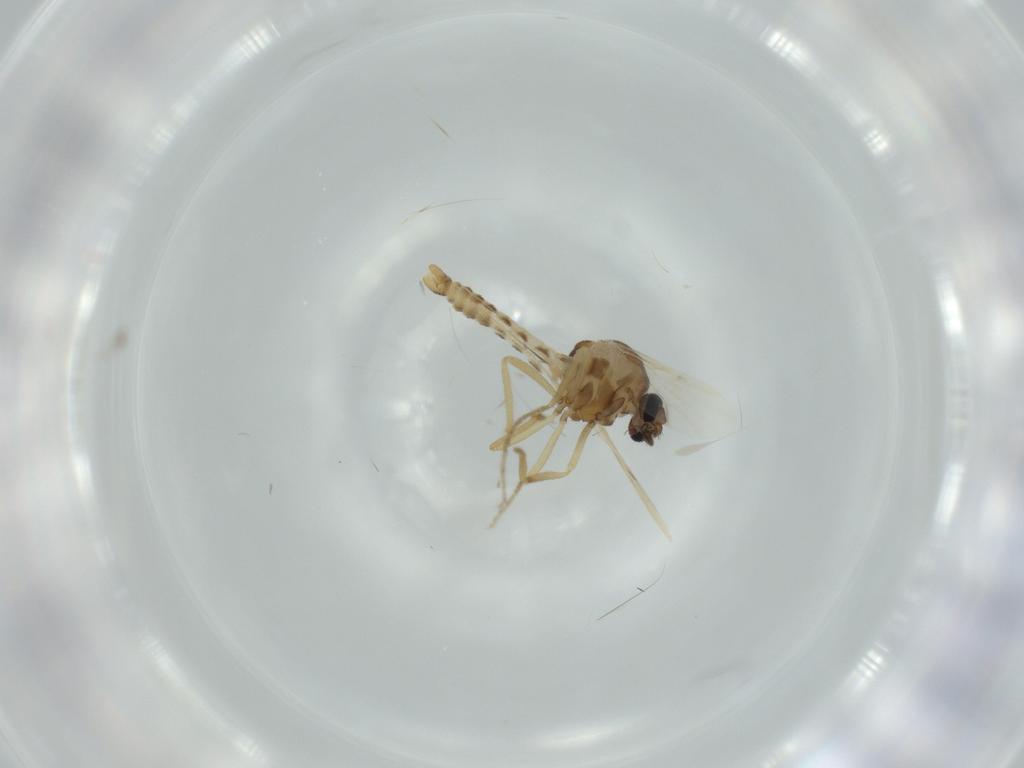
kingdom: Animalia
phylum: Arthropoda
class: Insecta
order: Diptera
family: Ceratopogonidae
